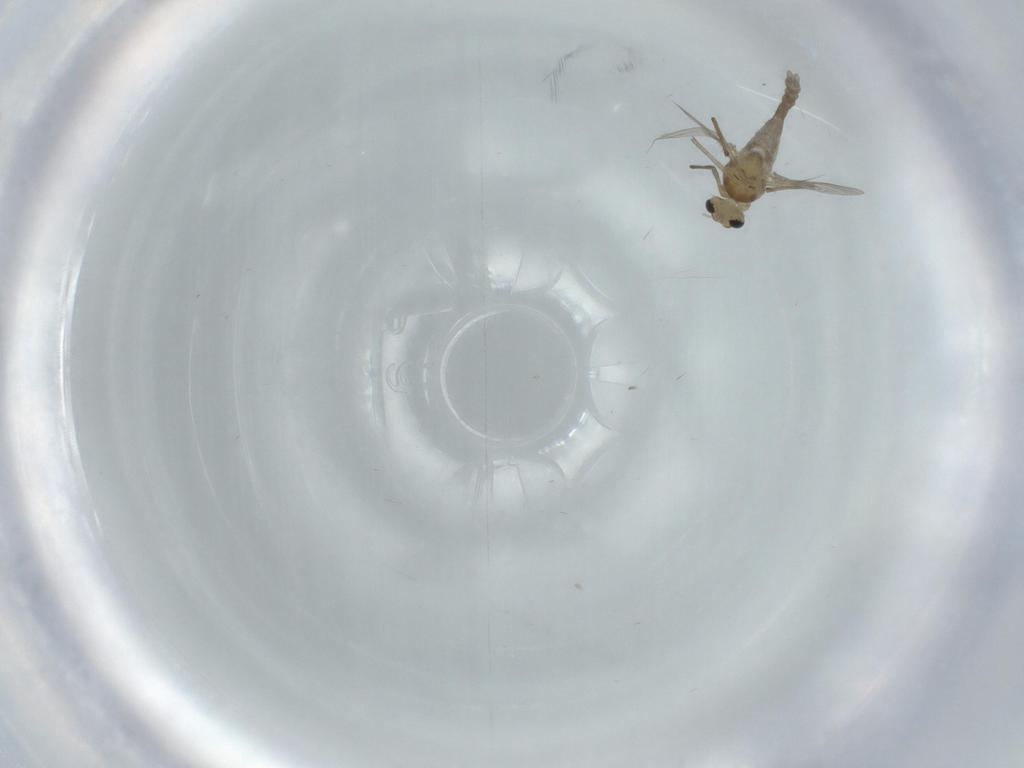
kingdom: Animalia
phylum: Arthropoda
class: Insecta
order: Diptera
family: Chironomidae
